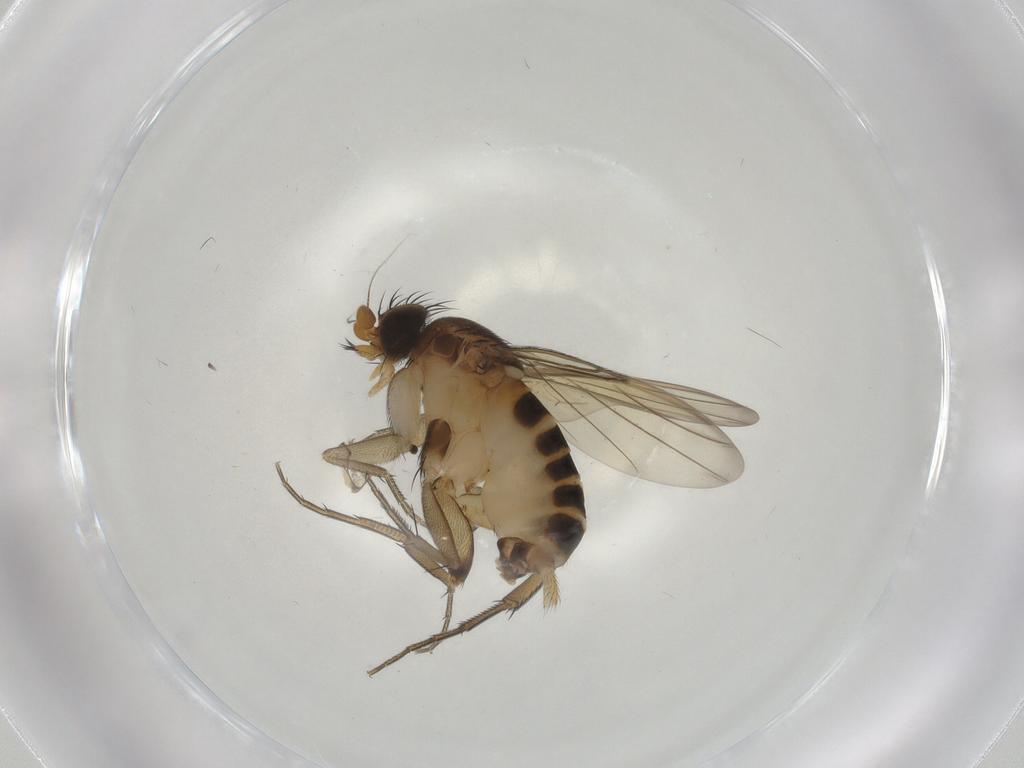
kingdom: Animalia
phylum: Arthropoda
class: Insecta
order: Diptera
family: Phoridae
